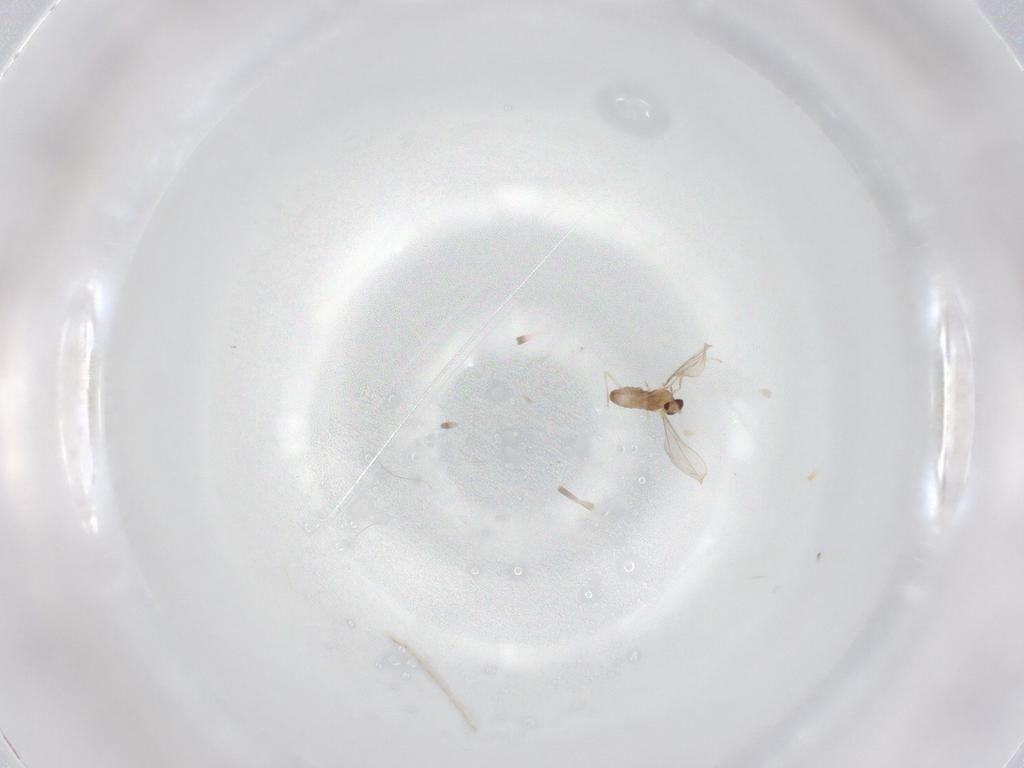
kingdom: Animalia
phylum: Arthropoda
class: Insecta
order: Diptera
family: Cecidomyiidae
